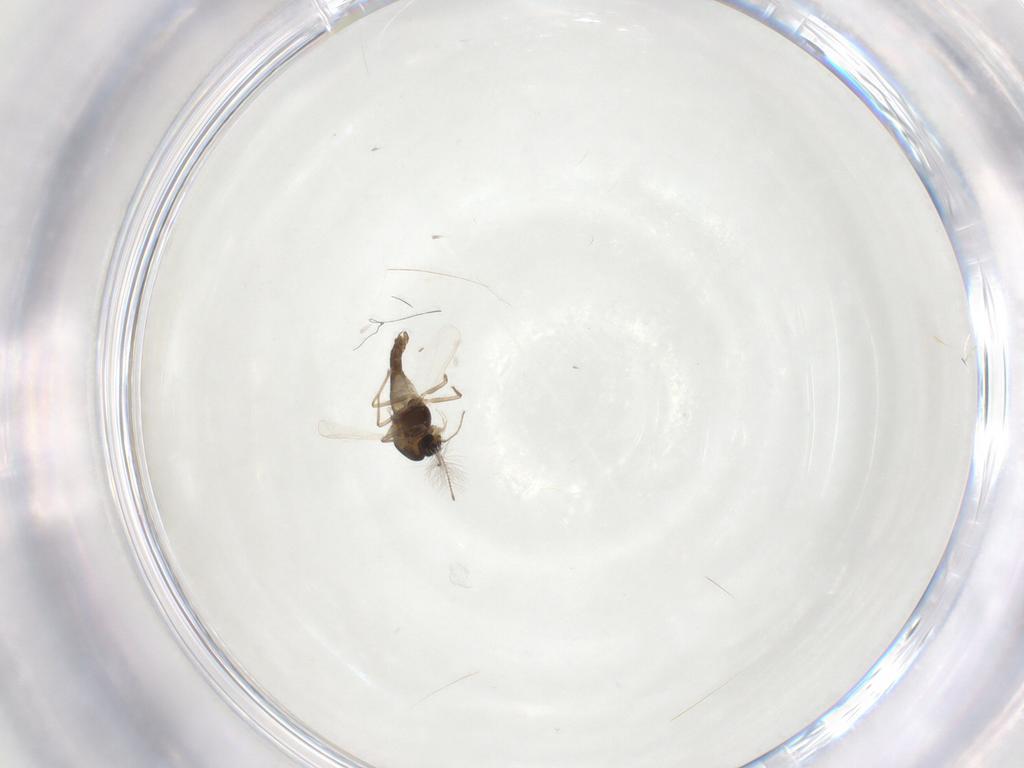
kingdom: Animalia
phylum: Arthropoda
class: Insecta
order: Diptera
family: Chironomidae
